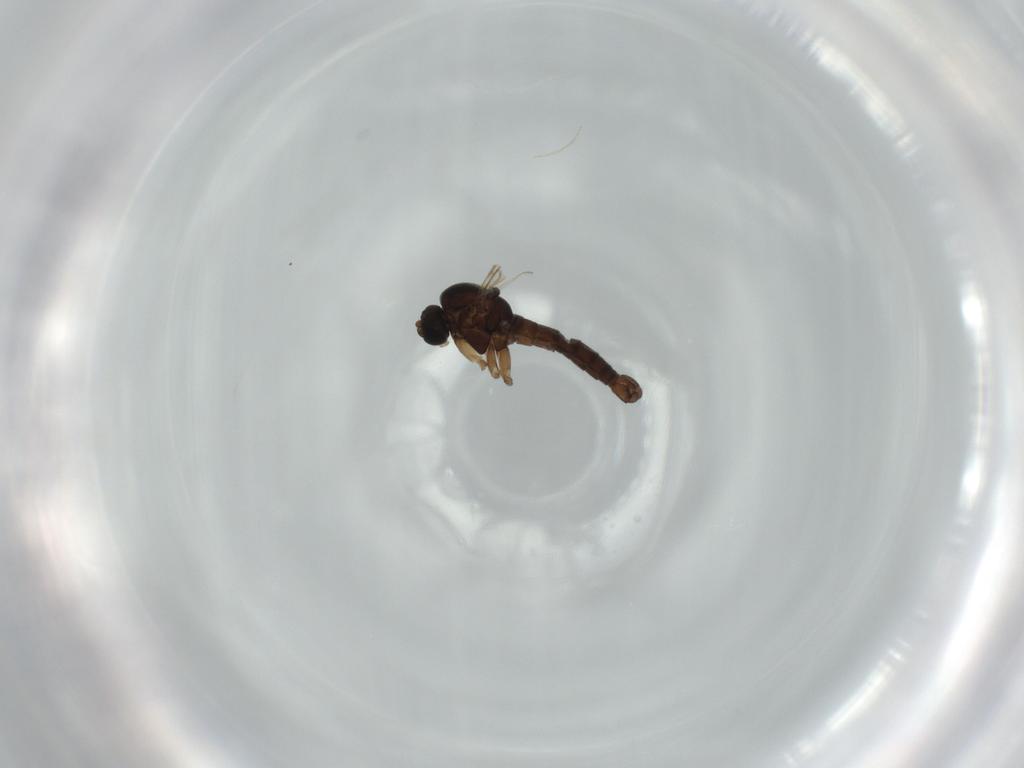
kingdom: Animalia
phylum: Arthropoda
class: Insecta
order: Diptera
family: Sciaridae
